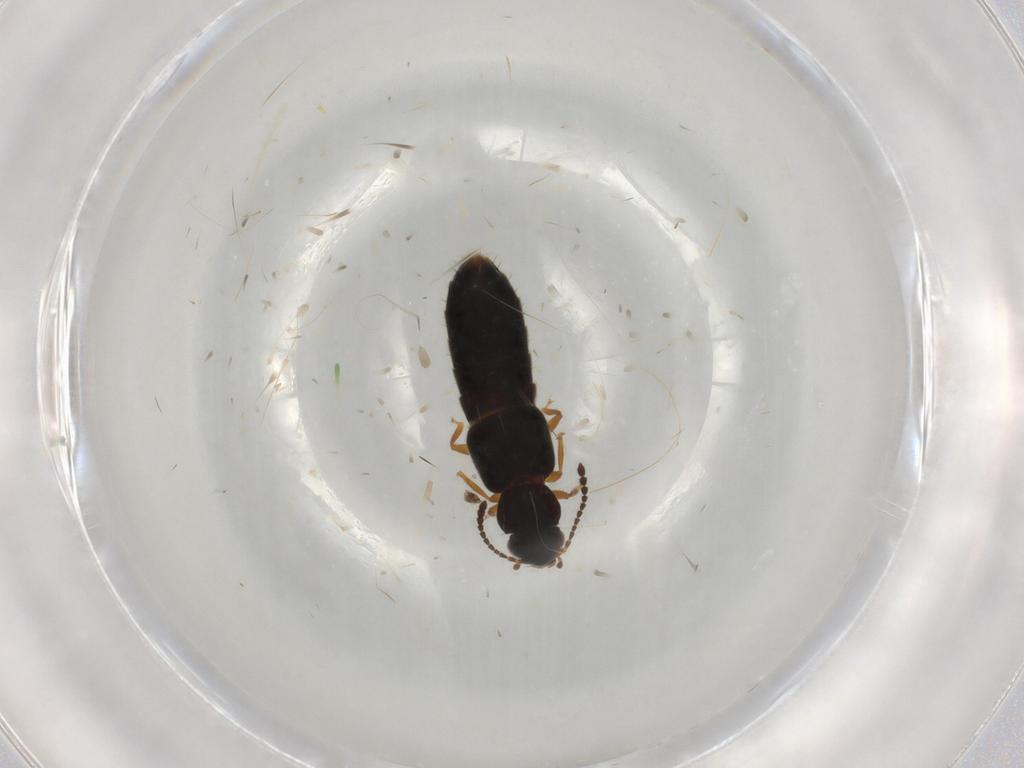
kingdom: Animalia
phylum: Arthropoda
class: Insecta
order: Coleoptera
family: Staphylinidae
